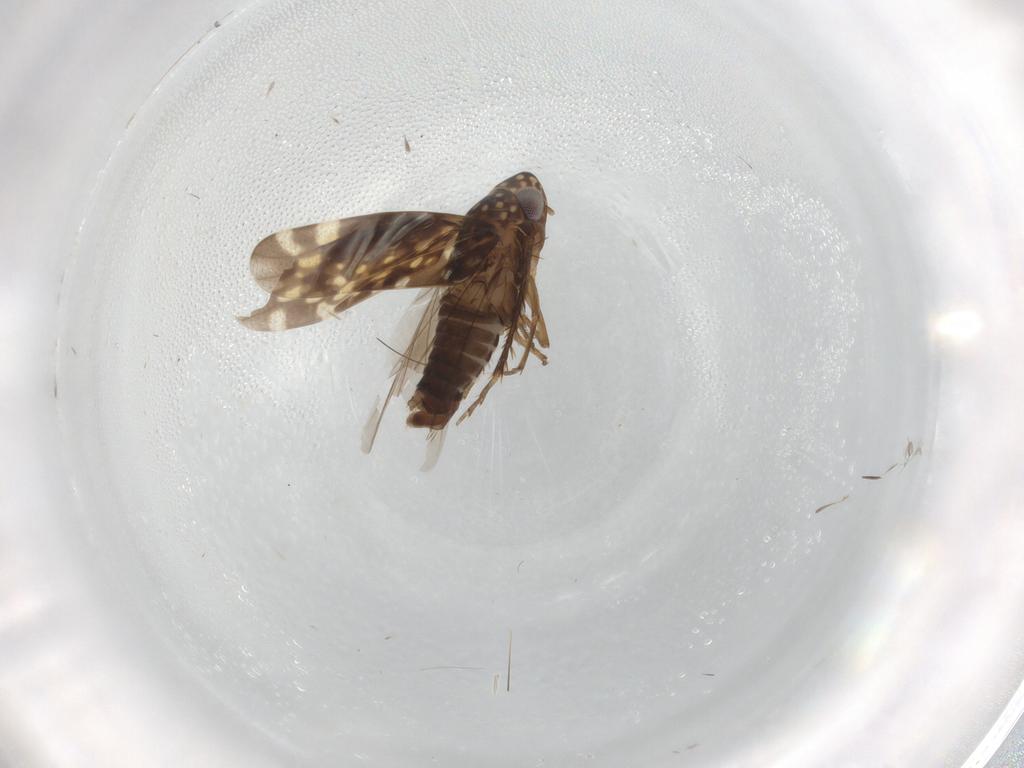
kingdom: Animalia
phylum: Arthropoda
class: Insecta
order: Hemiptera
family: Cicadellidae
